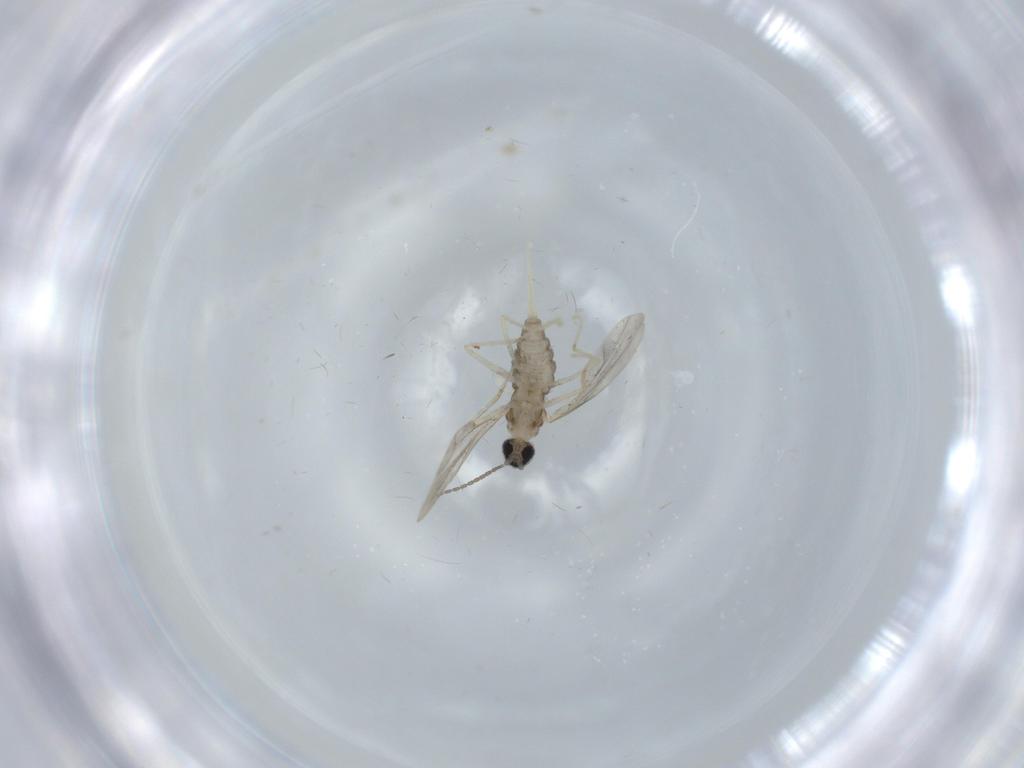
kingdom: Animalia
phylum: Arthropoda
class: Insecta
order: Diptera
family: Cecidomyiidae
